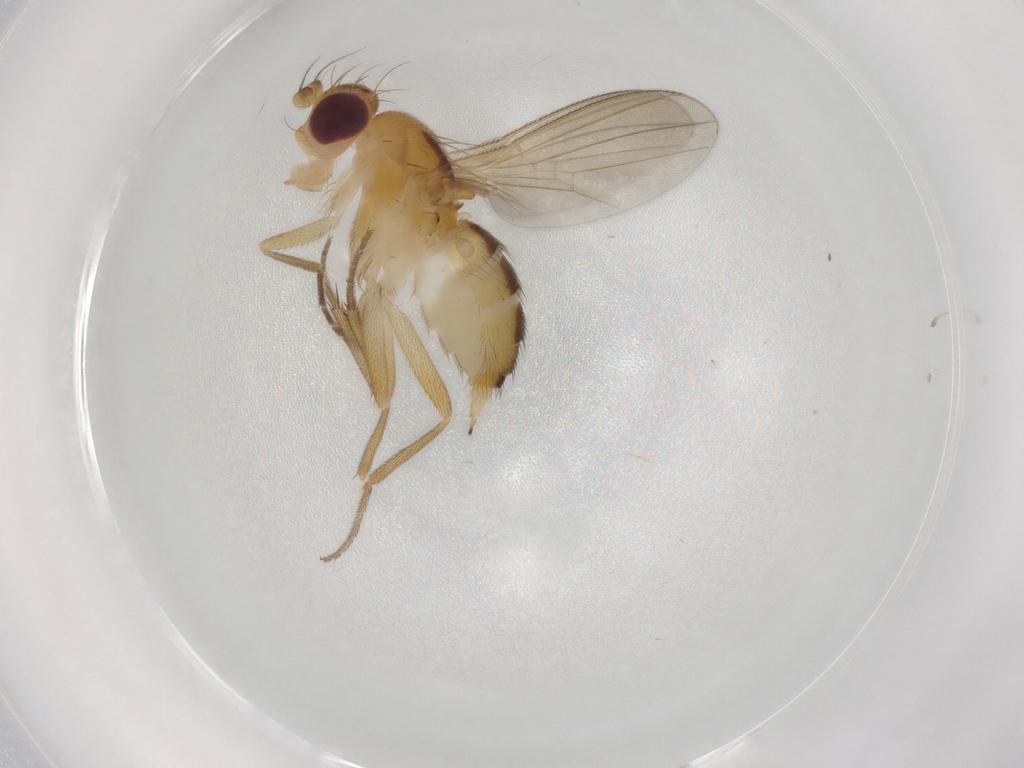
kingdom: Animalia
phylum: Arthropoda
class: Insecta
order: Diptera
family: Clusiidae
